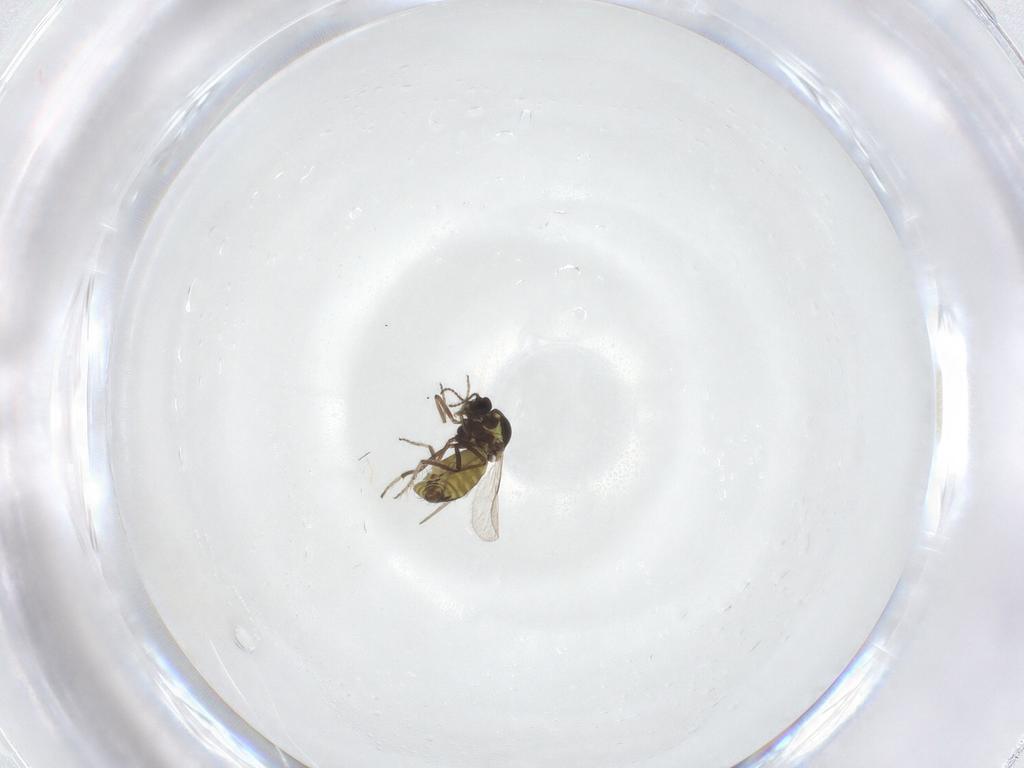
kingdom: Animalia
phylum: Arthropoda
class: Insecta
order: Diptera
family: Ceratopogonidae
